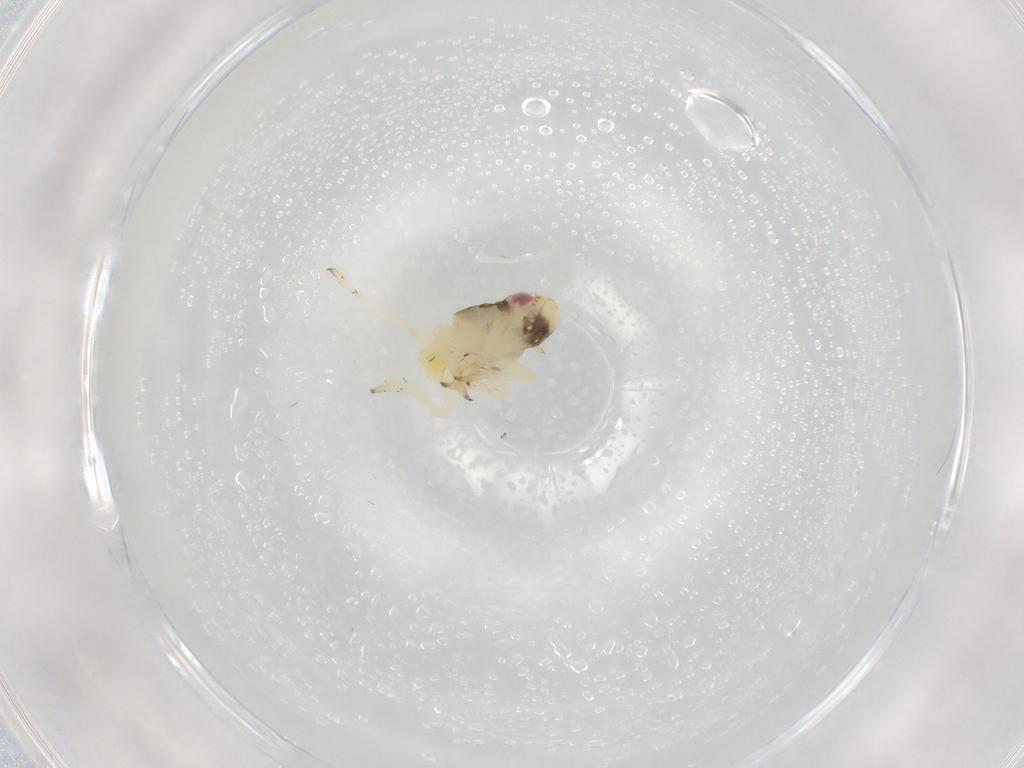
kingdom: Animalia
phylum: Arthropoda
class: Insecta
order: Hemiptera
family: Caliscelidae
